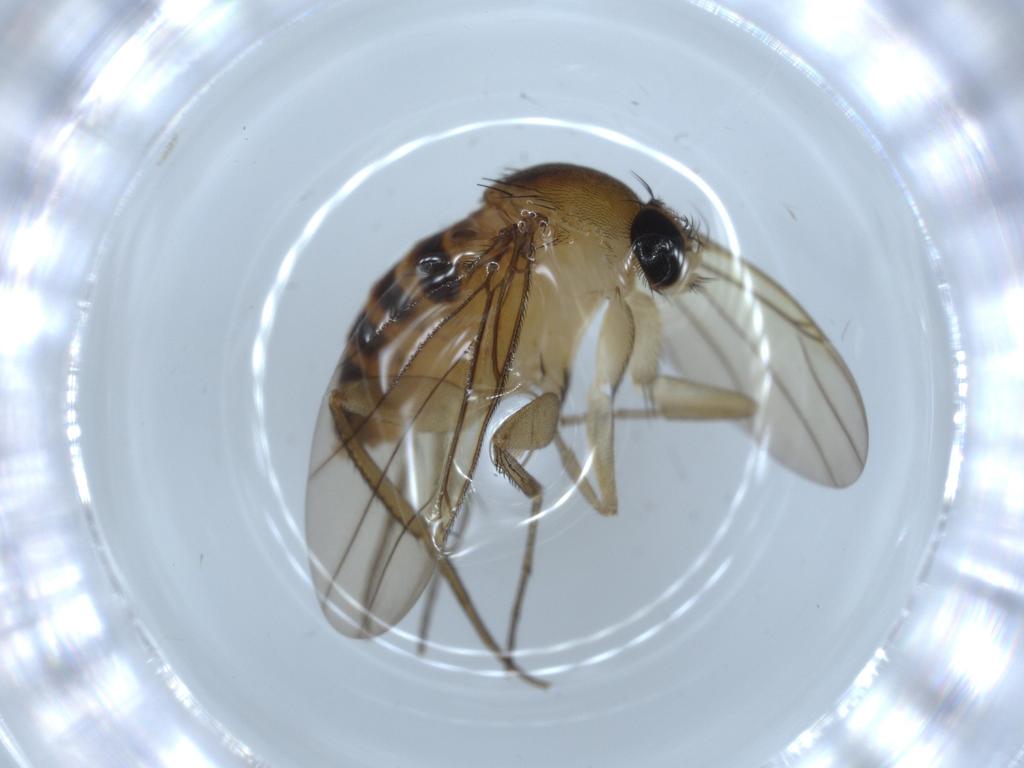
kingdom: Animalia
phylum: Arthropoda
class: Insecta
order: Diptera
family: Phoridae
